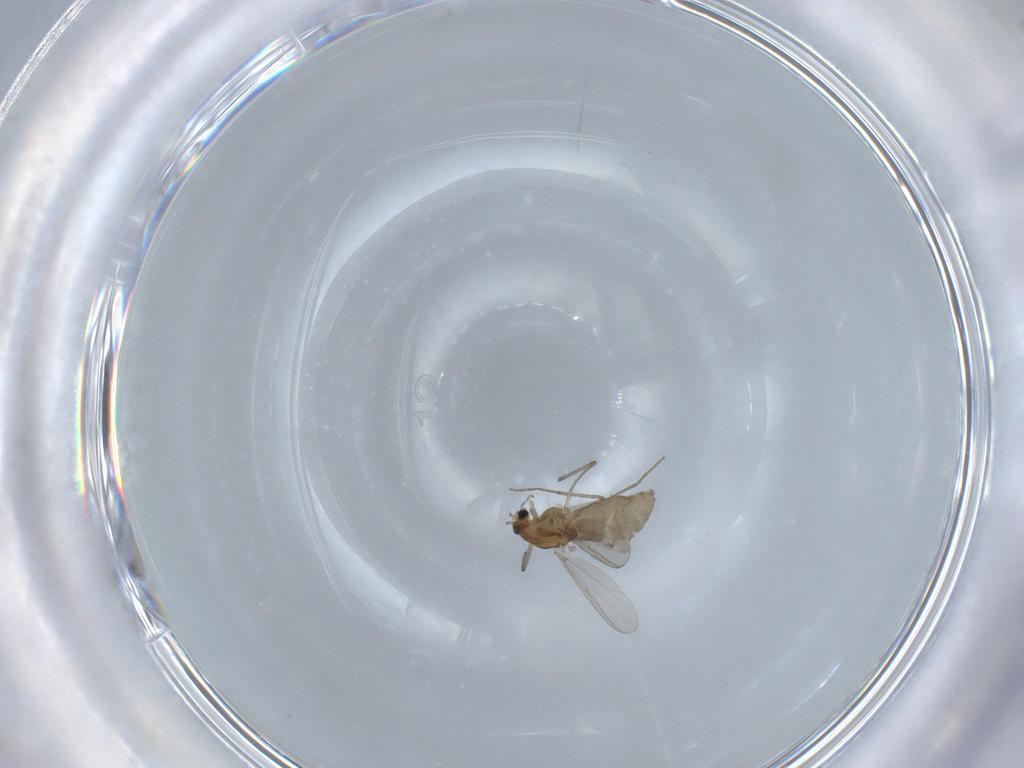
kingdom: Animalia
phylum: Arthropoda
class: Insecta
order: Diptera
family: Chironomidae
